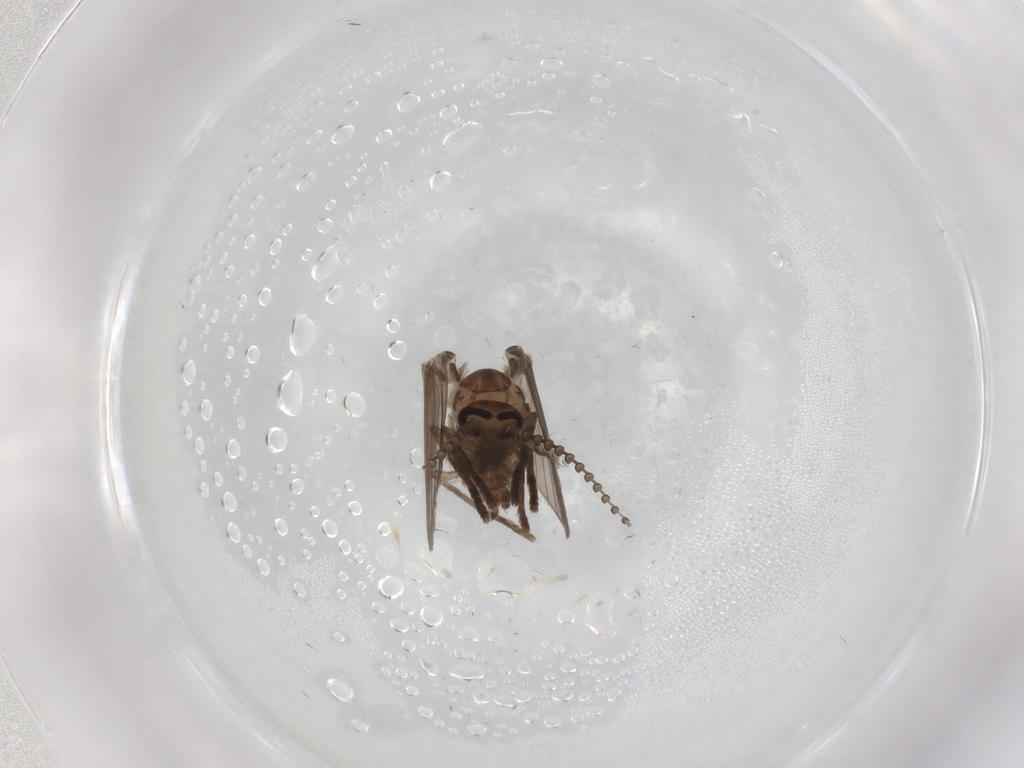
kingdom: Animalia
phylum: Arthropoda
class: Insecta
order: Diptera
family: Psychodidae
